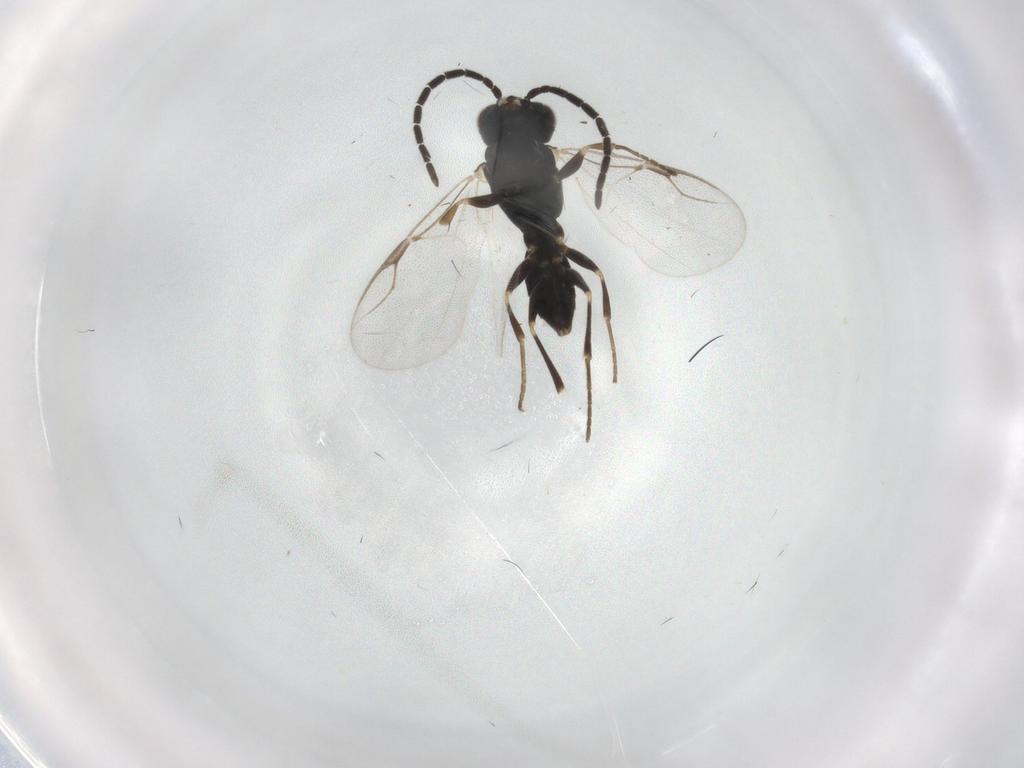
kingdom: Animalia
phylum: Arthropoda
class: Insecta
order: Hymenoptera
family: Dryinidae
